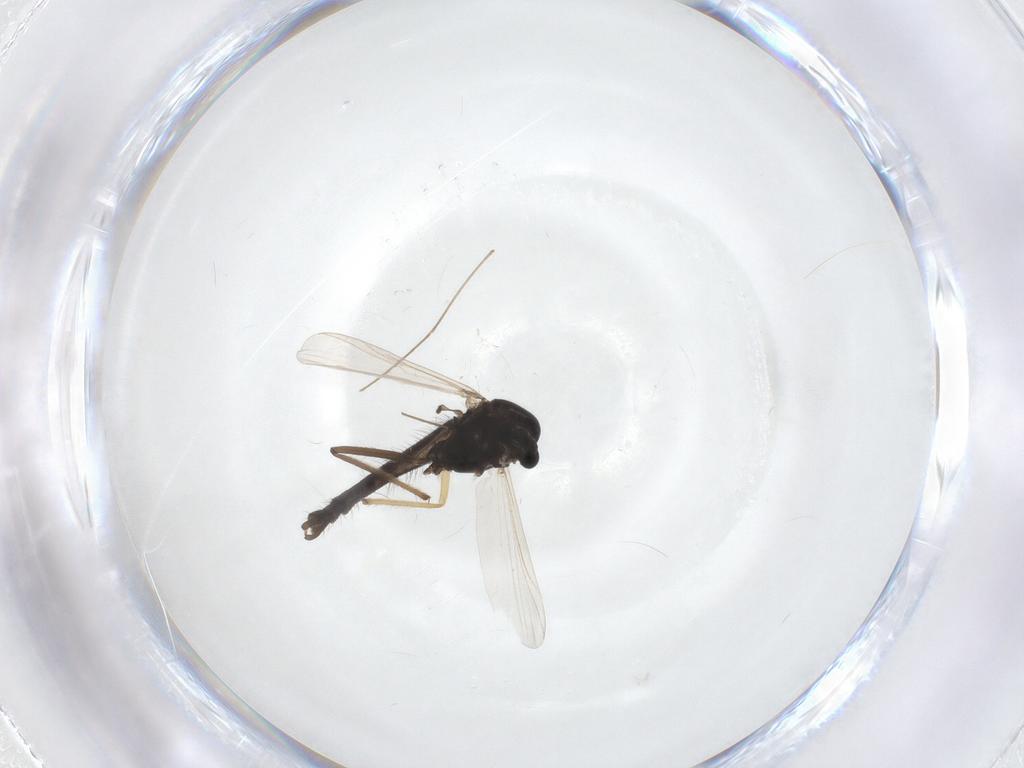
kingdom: Animalia
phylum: Arthropoda
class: Insecta
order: Diptera
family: Chironomidae
